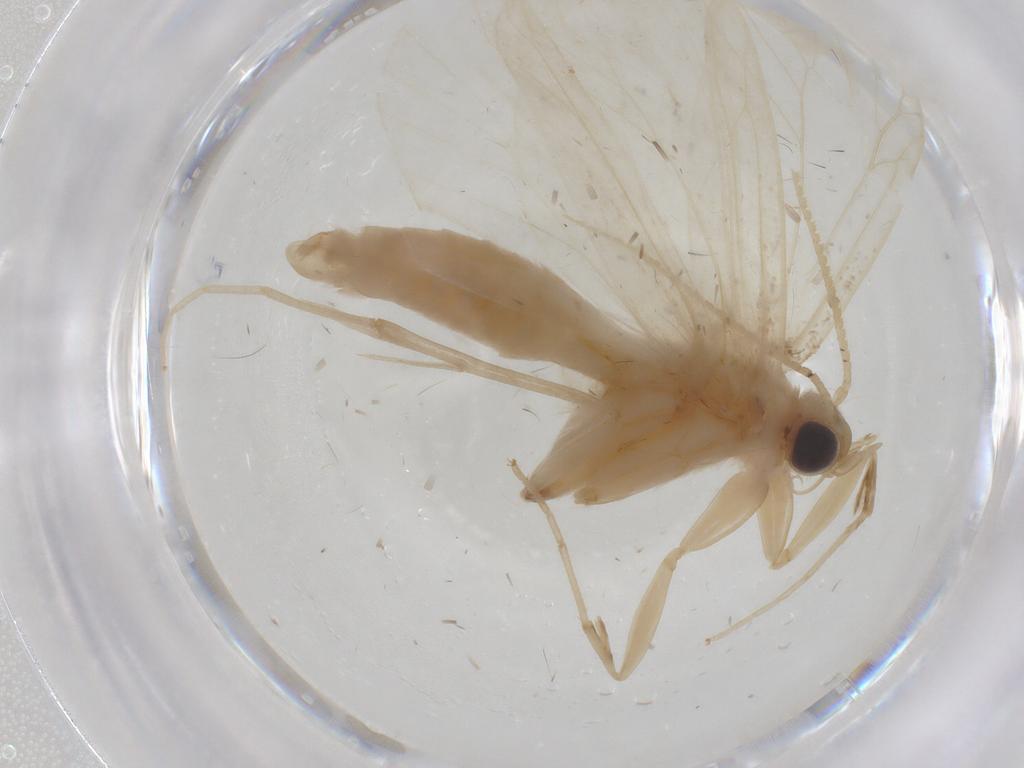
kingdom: Animalia
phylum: Arthropoda
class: Insecta
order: Lepidoptera
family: Crambidae
